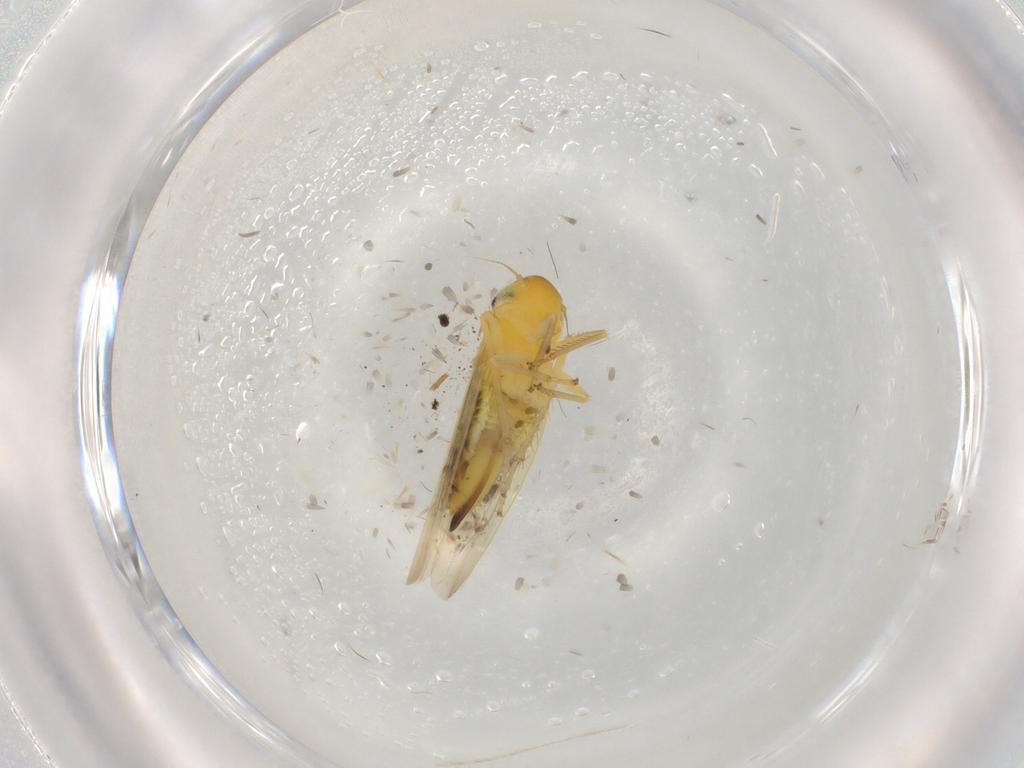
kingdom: Animalia
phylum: Arthropoda
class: Insecta
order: Hemiptera
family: Cicadellidae
